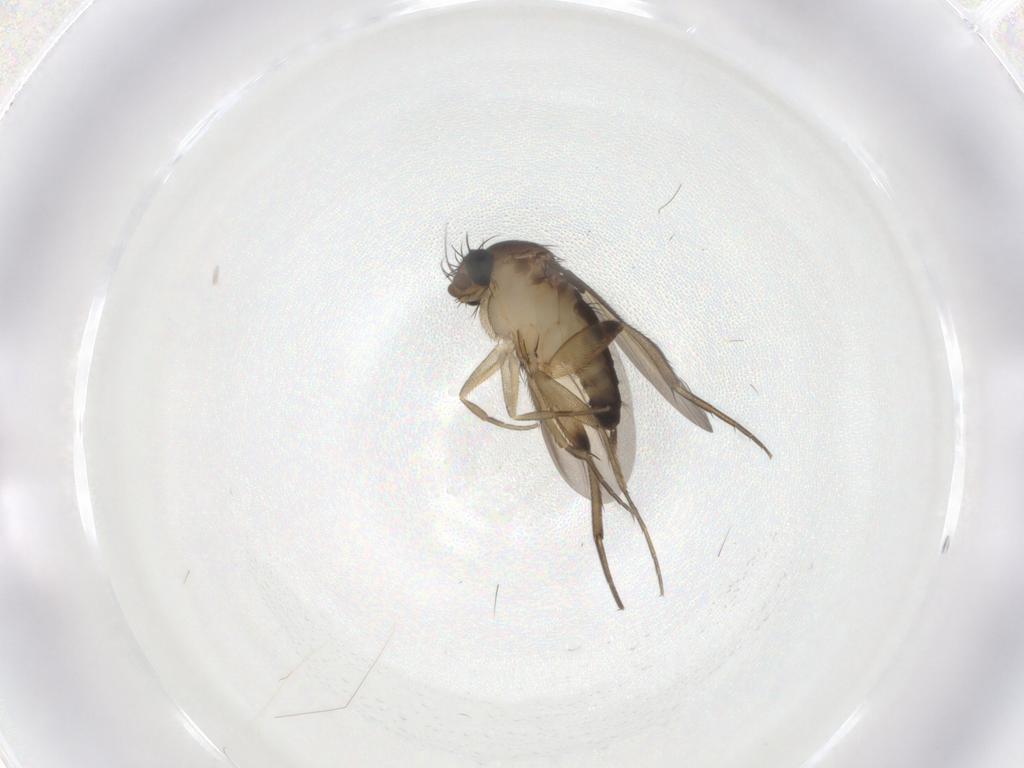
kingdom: Animalia
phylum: Arthropoda
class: Insecta
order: Diptera
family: Phoridae
